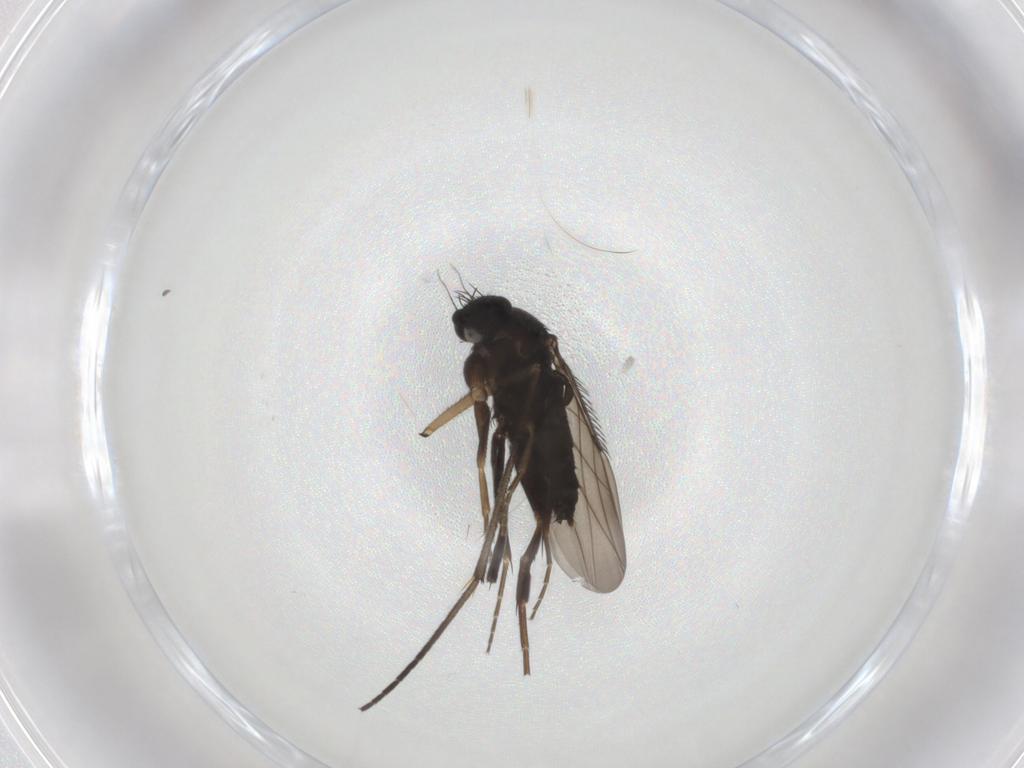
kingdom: Animalia
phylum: Arthropoda
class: Insecta
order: Diptera
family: Phoridae
